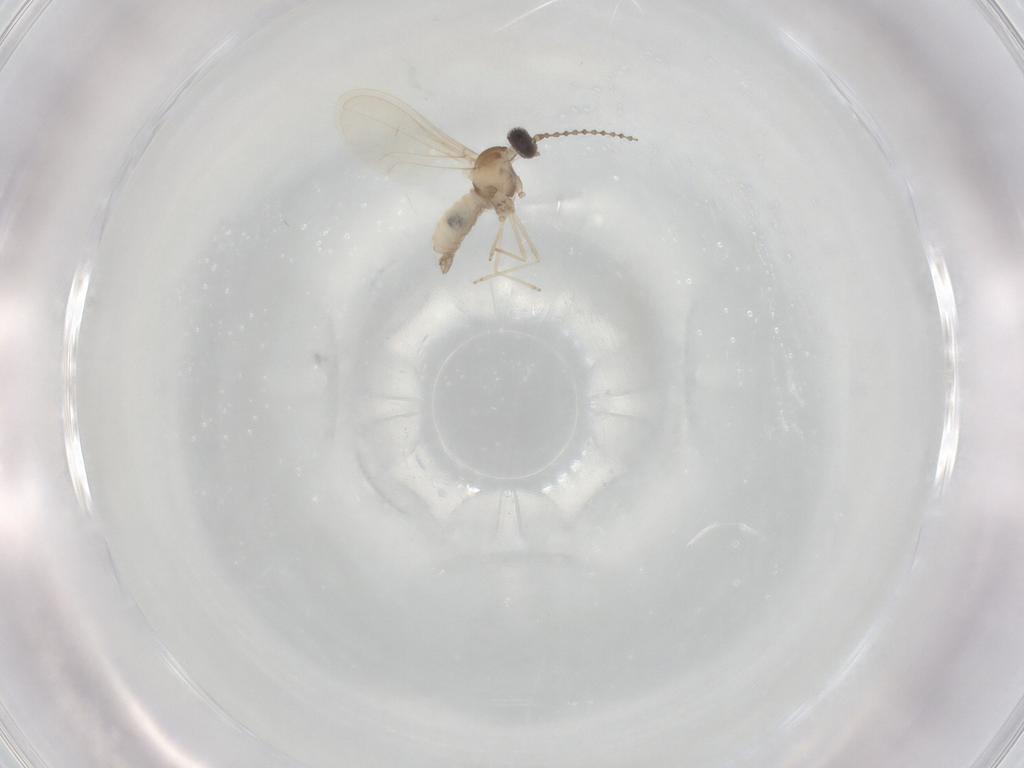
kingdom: Animalia
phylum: Arthropoda
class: Insecta
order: Diptera
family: Cecidomyiidae
